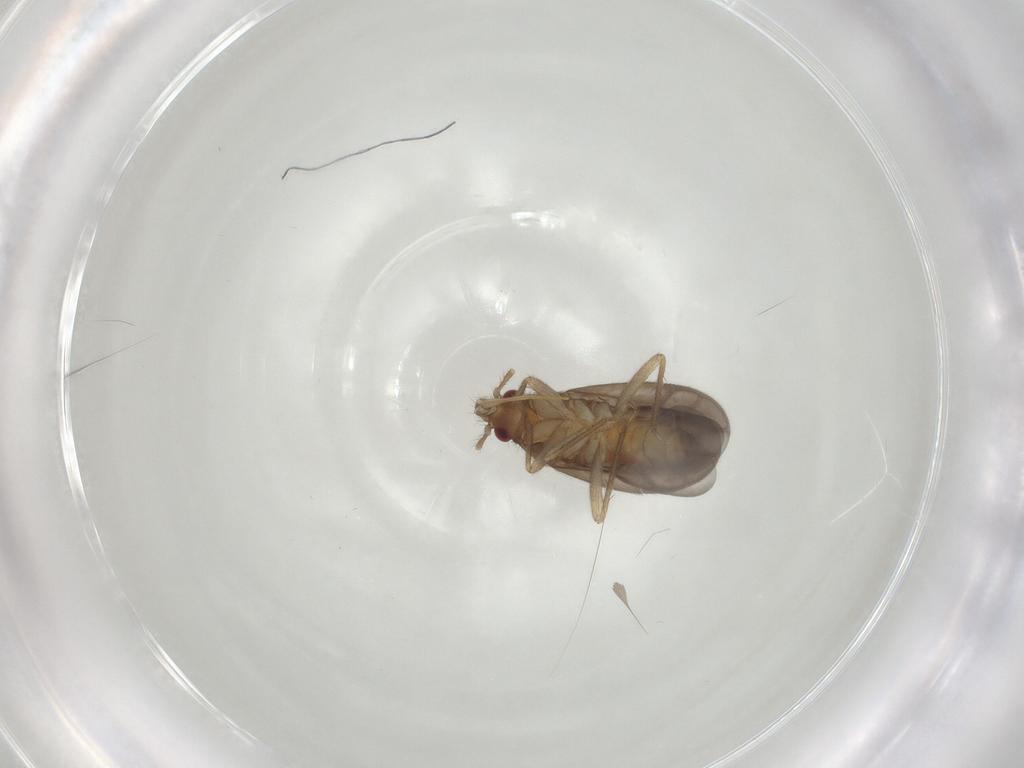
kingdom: Animalia
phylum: Arthropoda
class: Insecta
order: Hemiptera
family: Ceratocombidae
